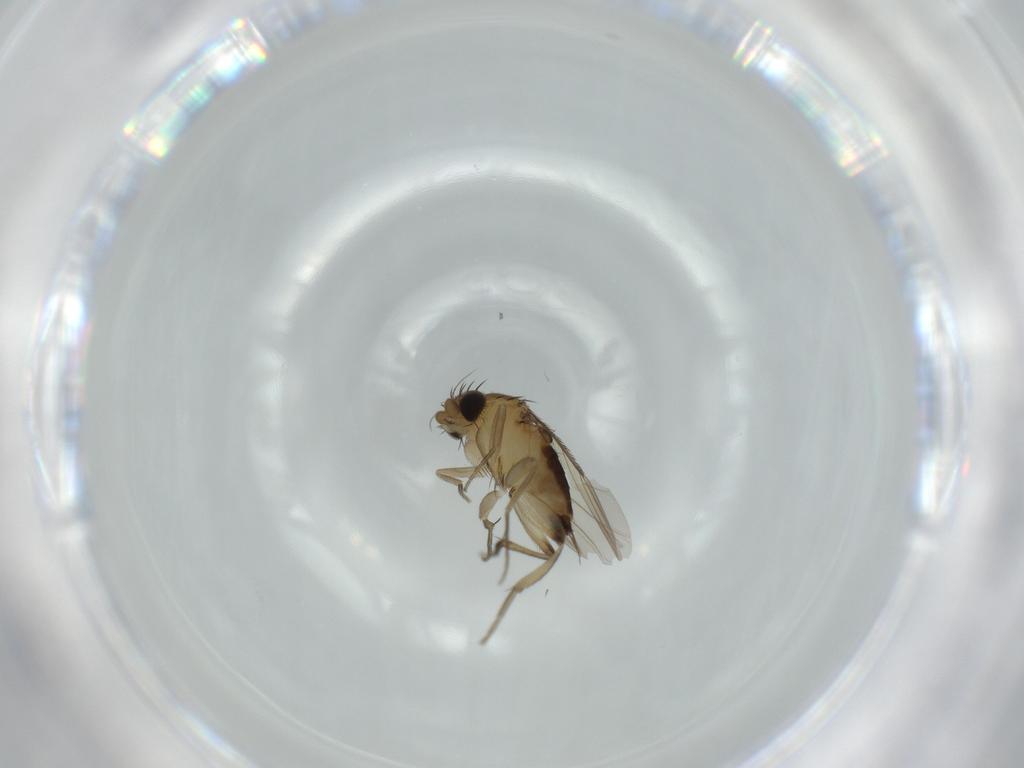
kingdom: Animalia
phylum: Arthropoda
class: Insecta
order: Diptera
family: Phoridae
